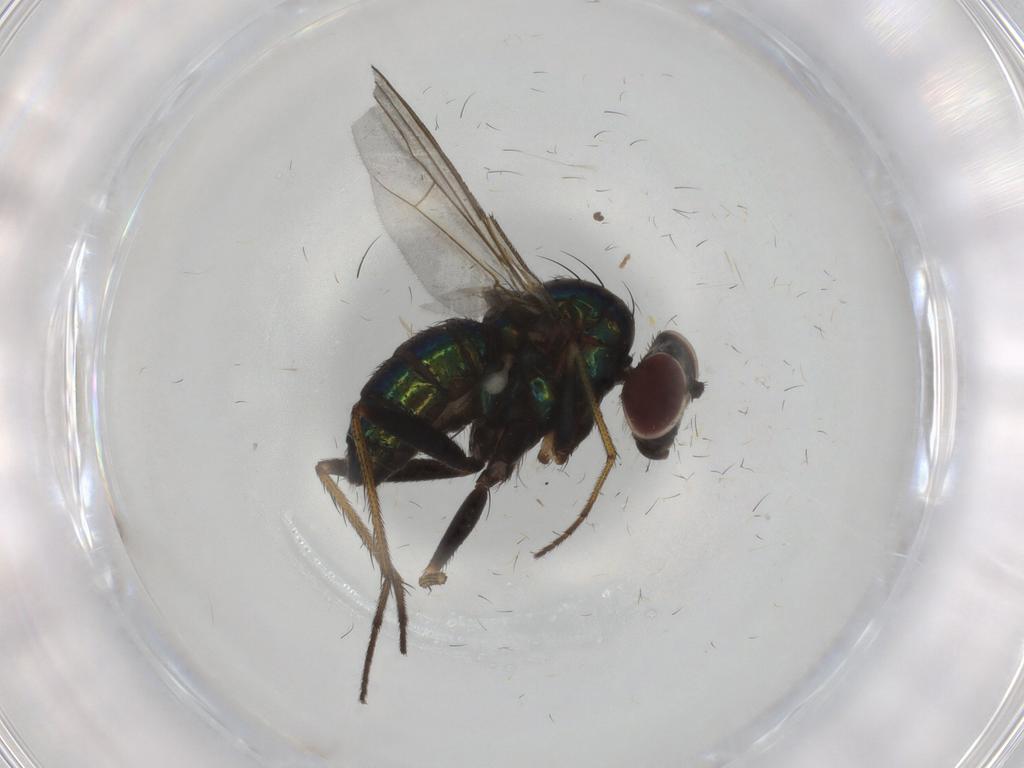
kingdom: Animalia
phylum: Arthropoda
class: Insecta
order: Diptera
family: Dolichopodidae
